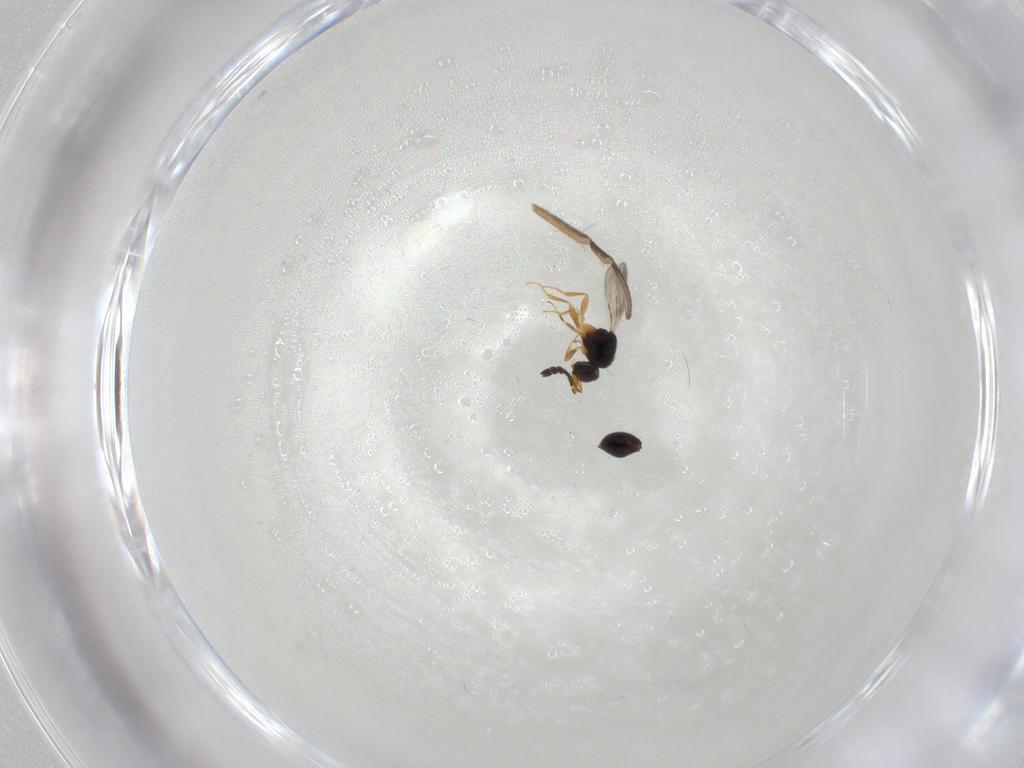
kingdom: Animalia
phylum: Arthropoda
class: Insecta
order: Hymenoptera
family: Ceraphronidae
